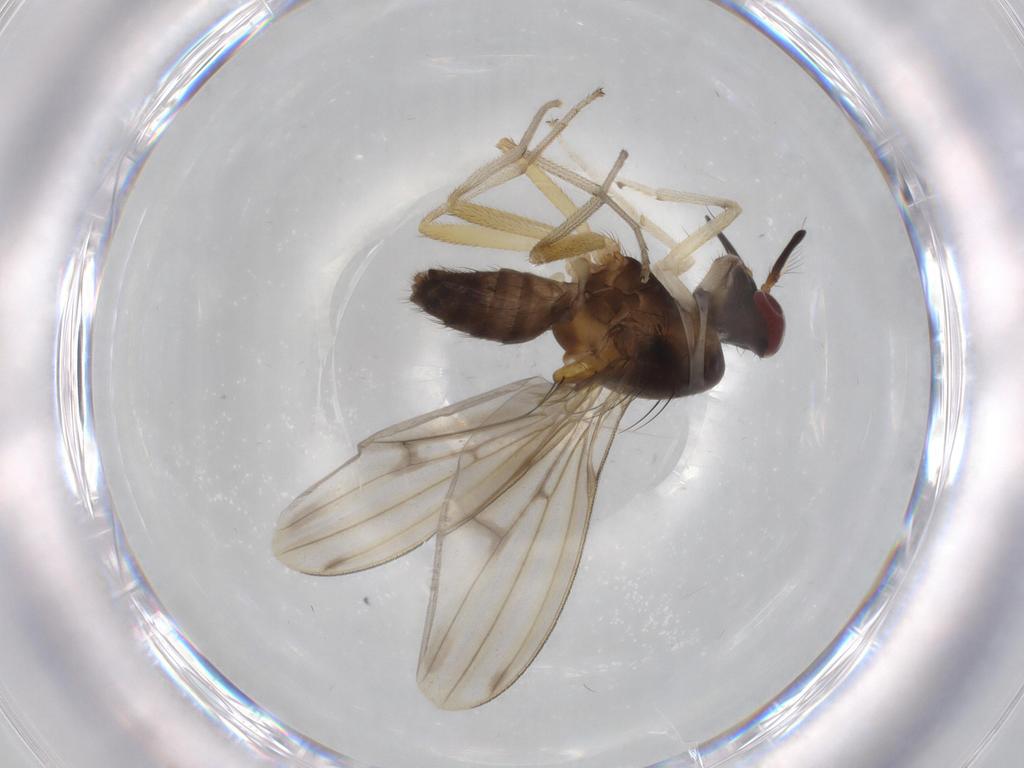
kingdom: Animalia
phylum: Arthropoda
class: Insecta
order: Diptera
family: Lauxaniidae
